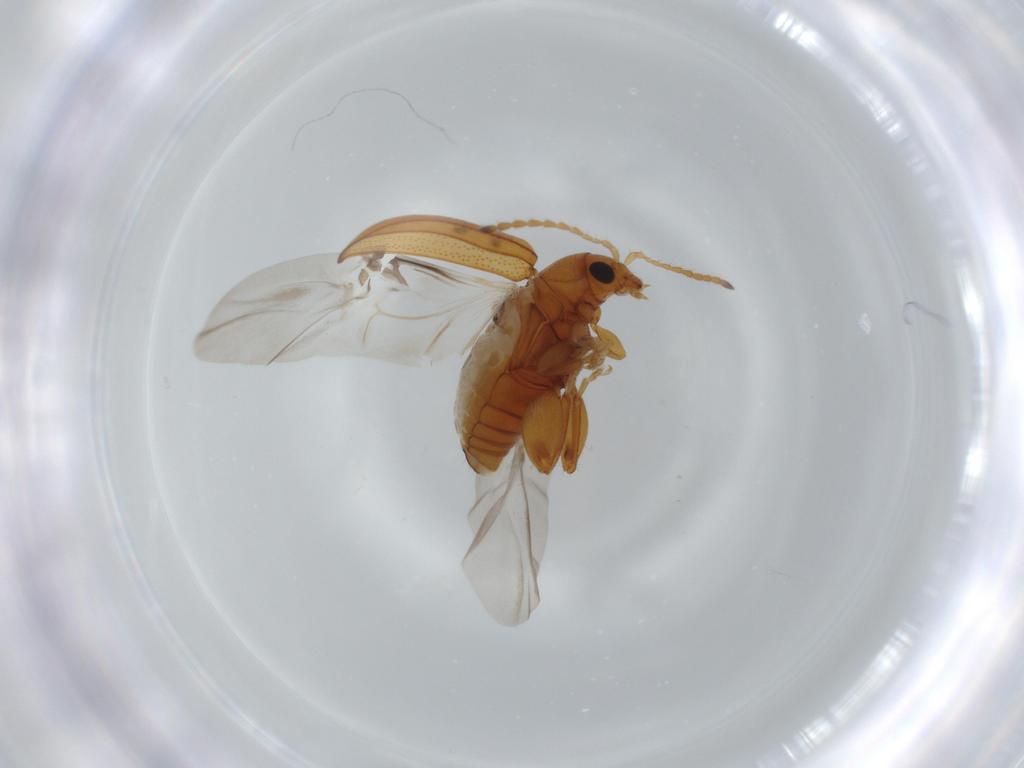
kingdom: Animalia
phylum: Arthropoda
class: Insecta
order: Coleoptera
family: Chrysomelidae
